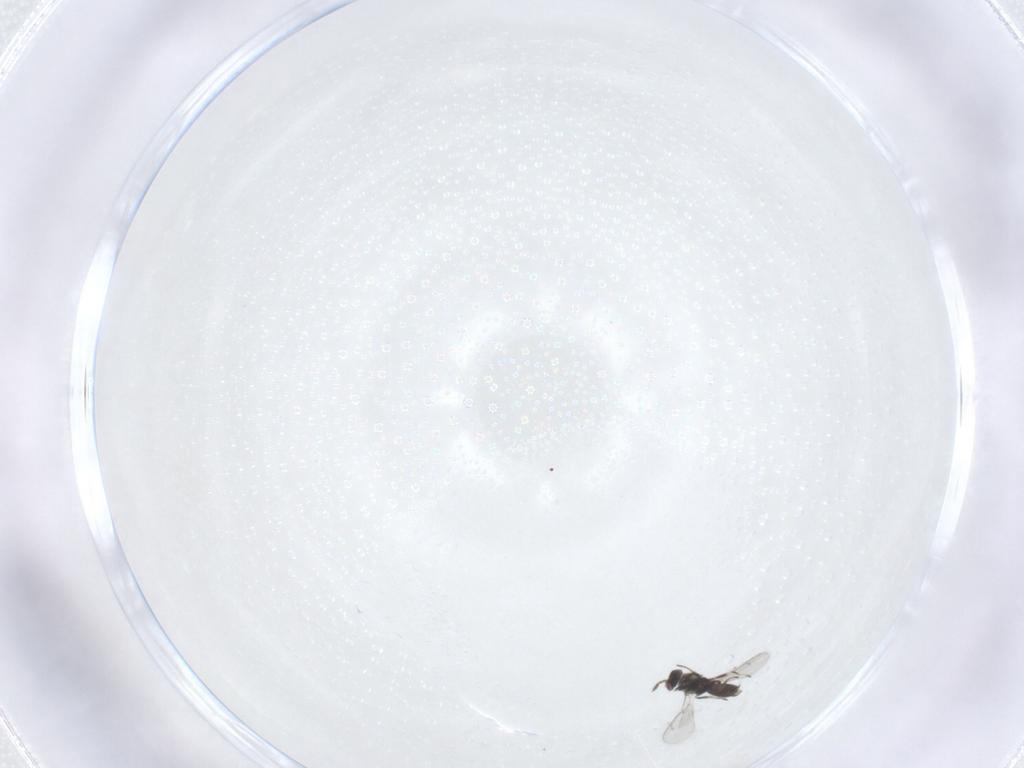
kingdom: Animalia
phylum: Arthropoda
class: Insecta
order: Hymenoptera
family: Eulophidae
